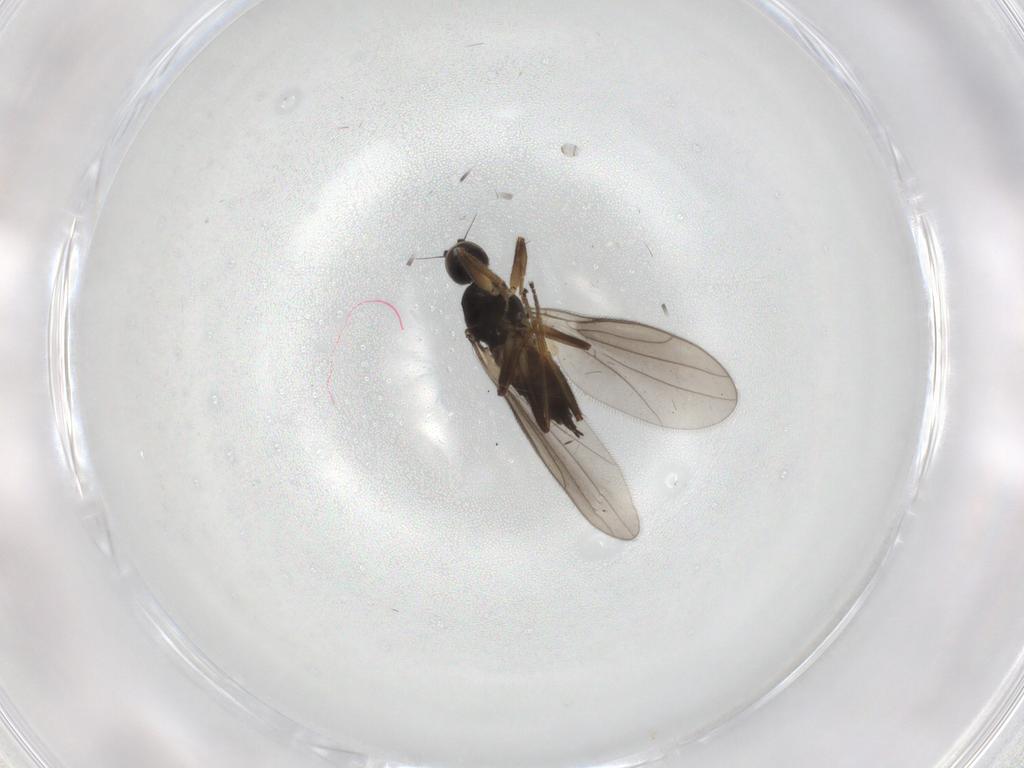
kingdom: Animalia
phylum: Arthropoda
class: Insecta
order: Diptera
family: Hybotidae
